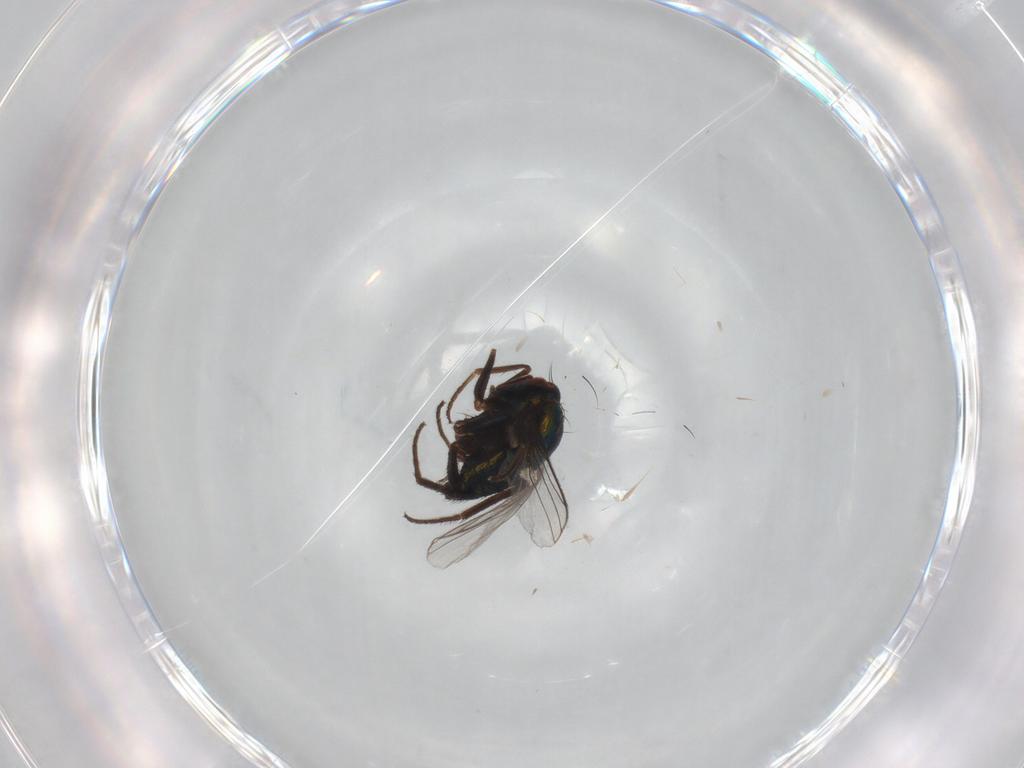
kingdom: Animalia
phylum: Arthropoda
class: Insecta
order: Diptera
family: Dolichopodidae
